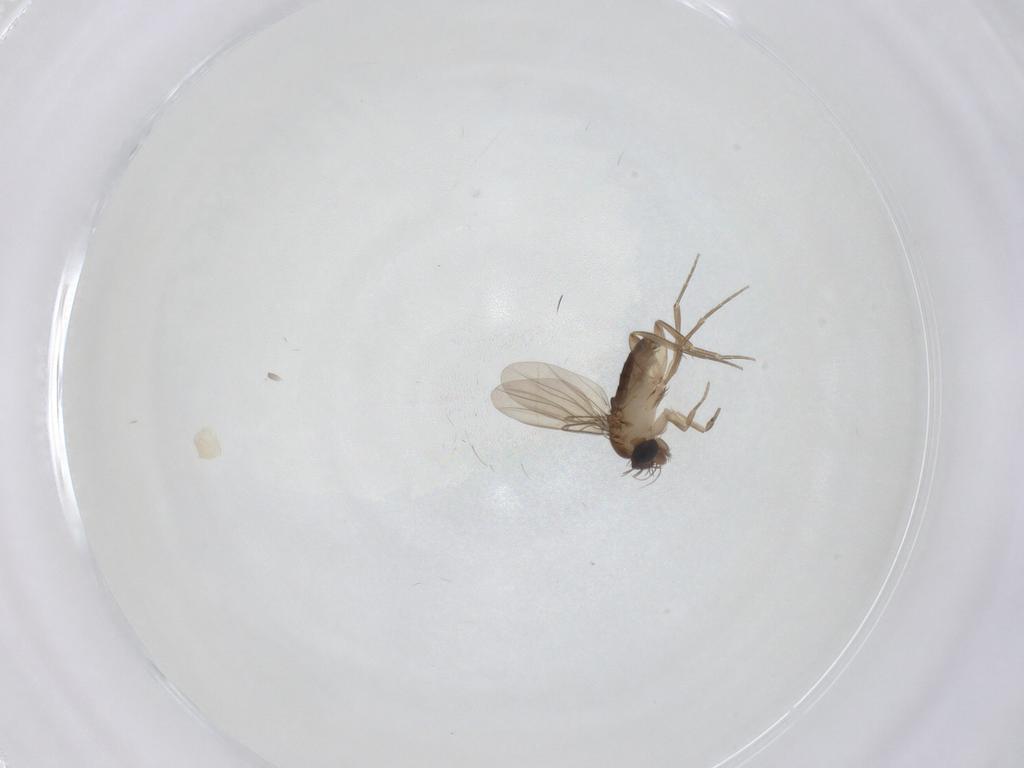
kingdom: Animalia
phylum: Arthropoda
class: Insecta
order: Diptera
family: Phoridae
